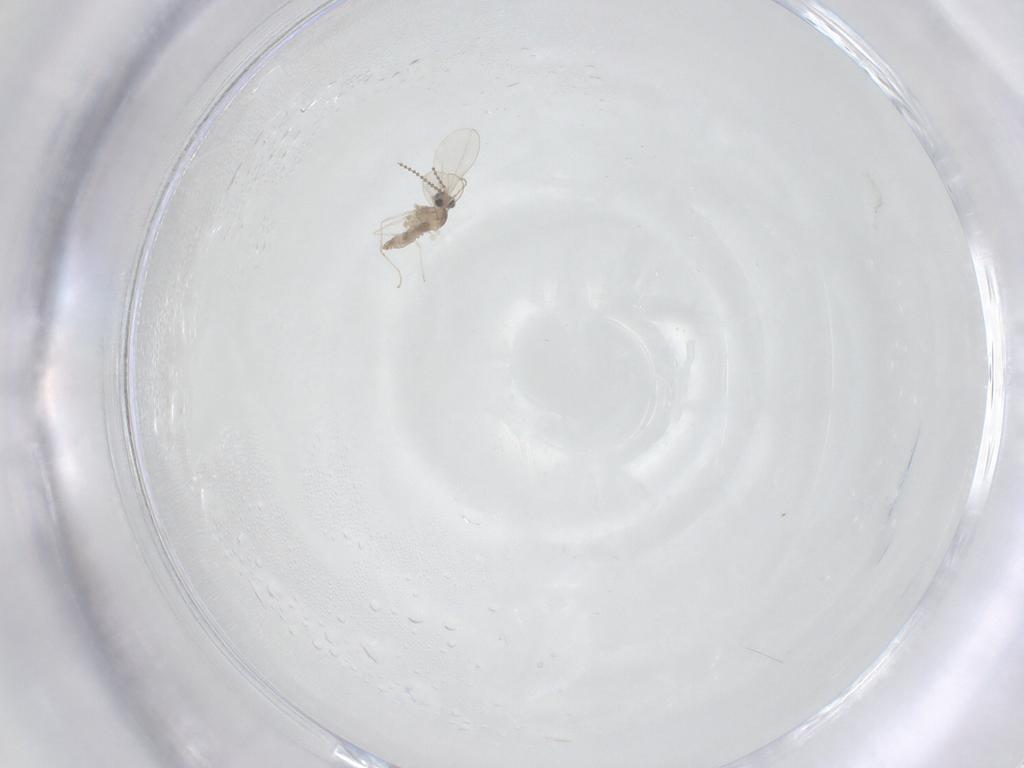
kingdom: Animalia
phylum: Arthropoda
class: Insecta
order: Diptera
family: Cecidomyiidae
